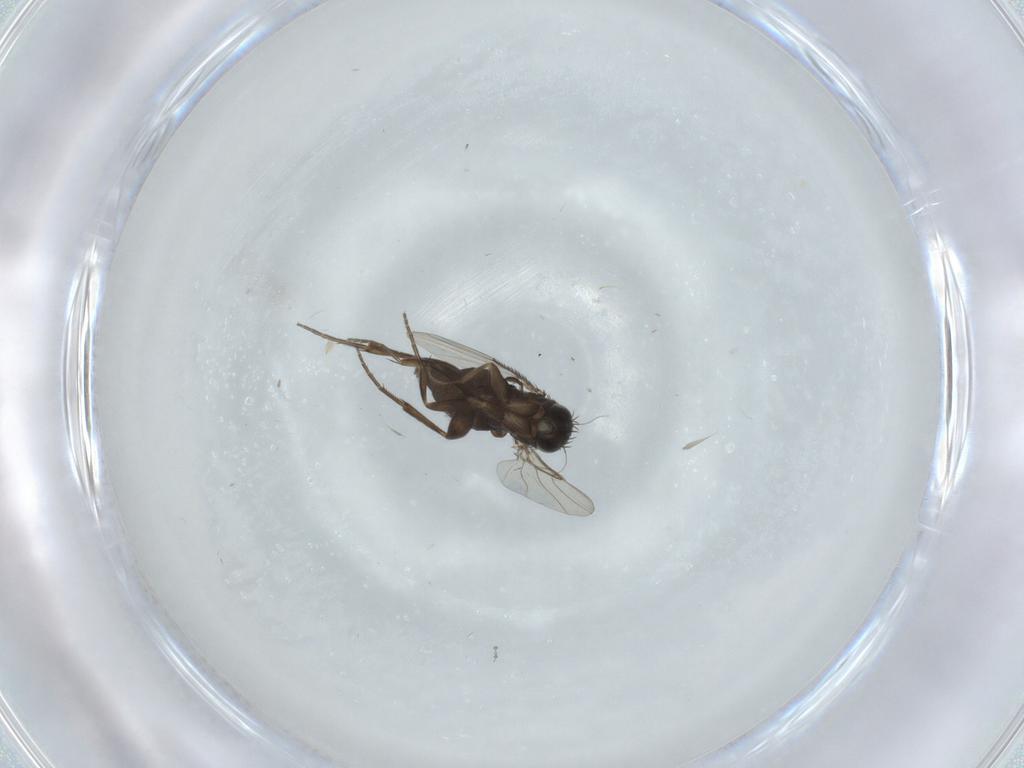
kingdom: Animalia
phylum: Arthropoda
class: Insecta
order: Diptera
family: Phoridae
